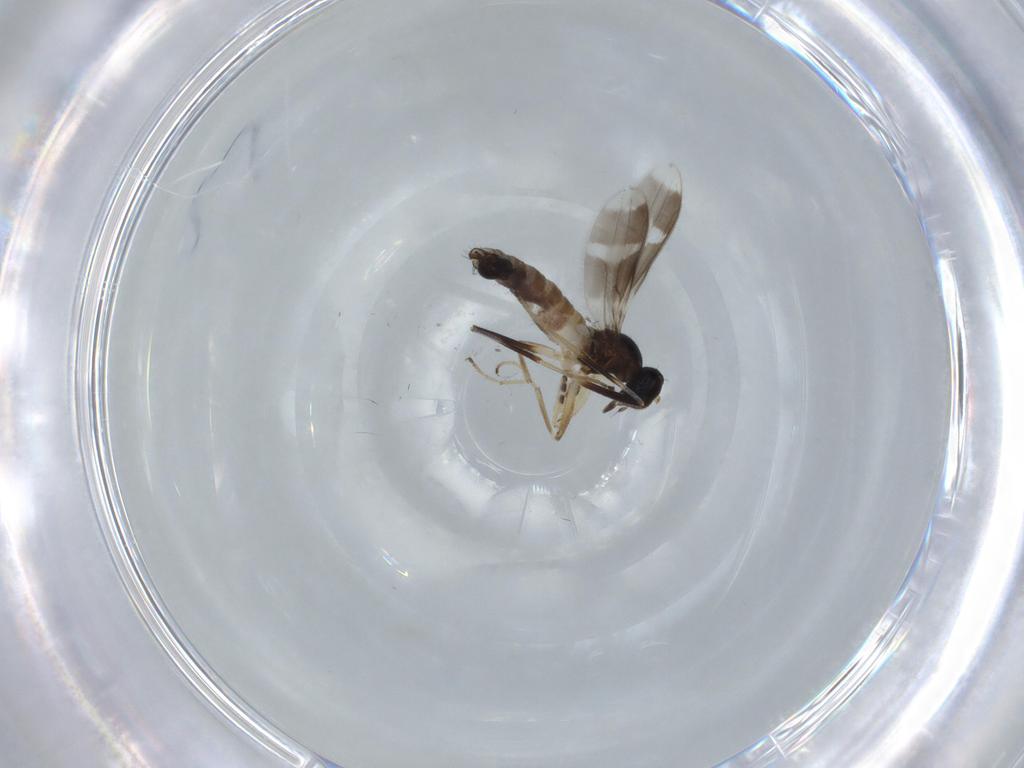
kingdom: Animalia
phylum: Arthropoda
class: Insecta
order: Diptera
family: Hybotidae
